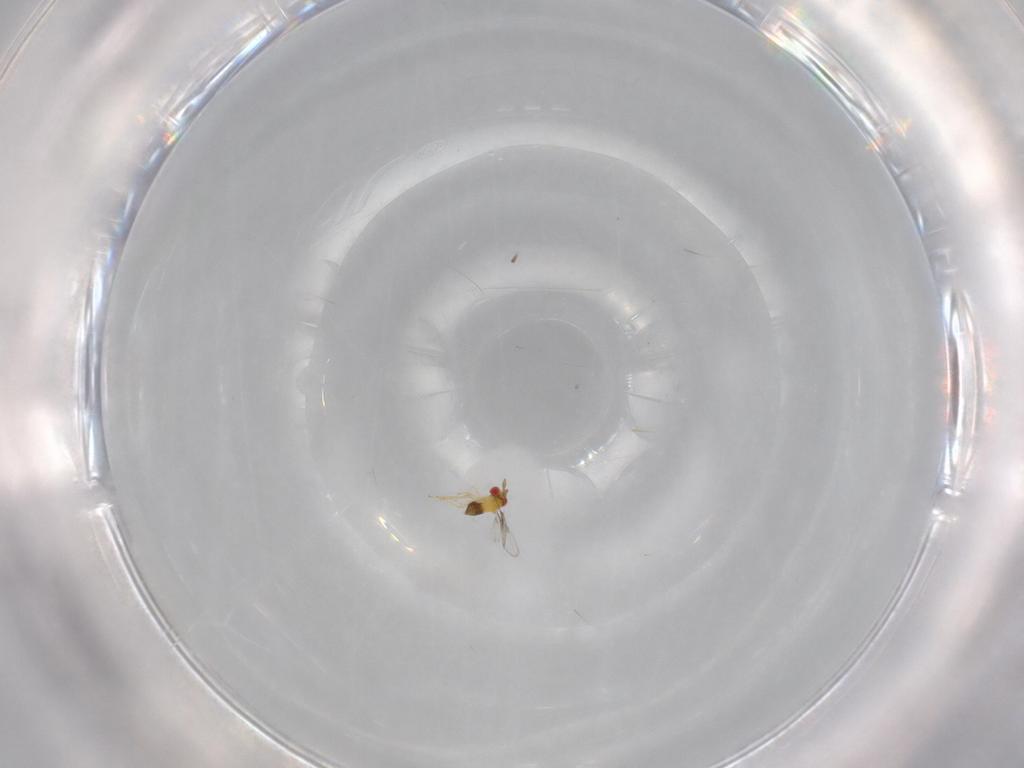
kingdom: Animalia
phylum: Arthropoda
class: Insecta
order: Hymenoptera
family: Trichogrammatidae
